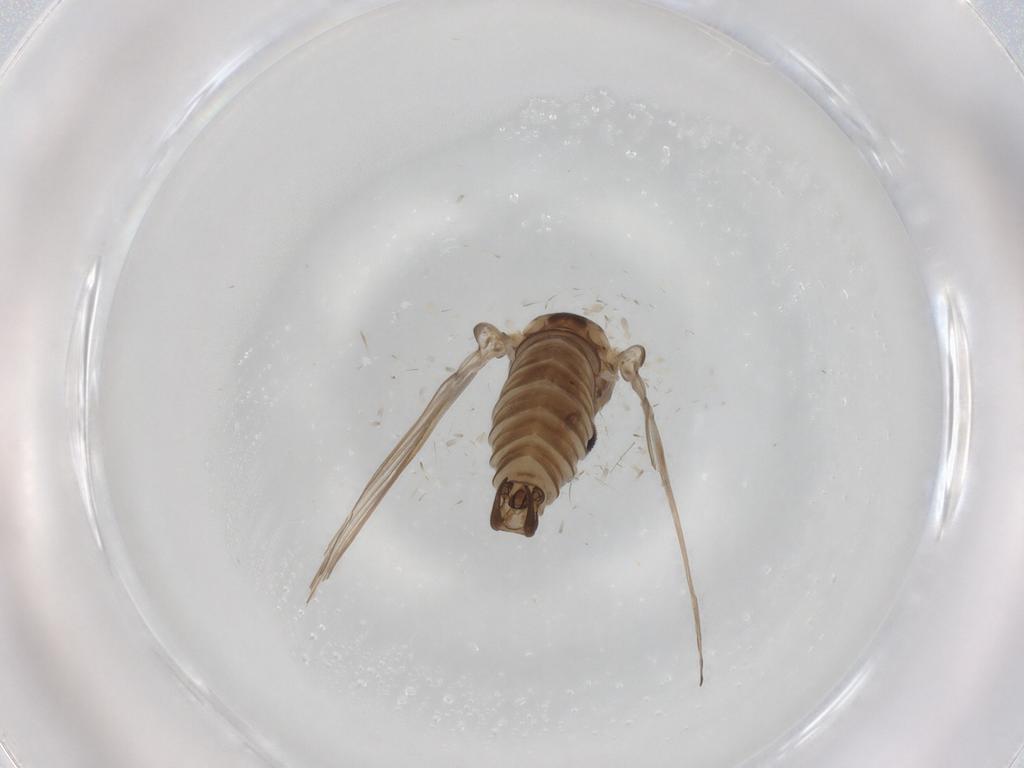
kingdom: Animalia
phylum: Arthropoda
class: Insecta
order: Diptera
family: Psychodidae
